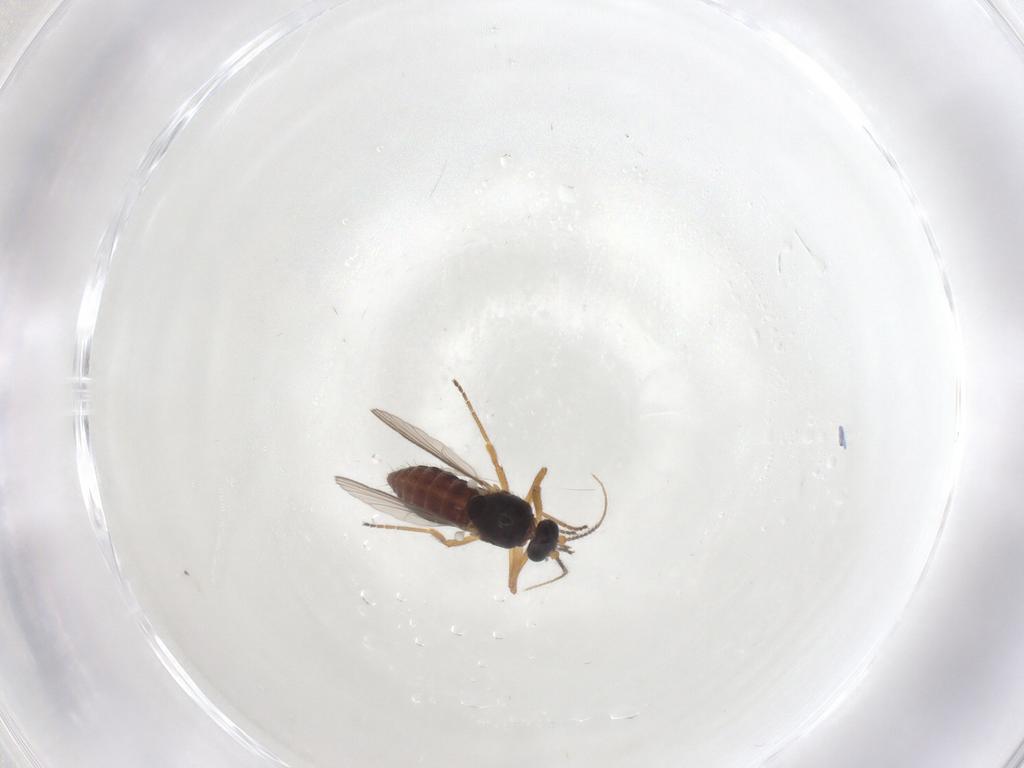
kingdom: Animalia
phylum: Arthropoda
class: Insecta
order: Diptera
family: Ceratopogonidae
